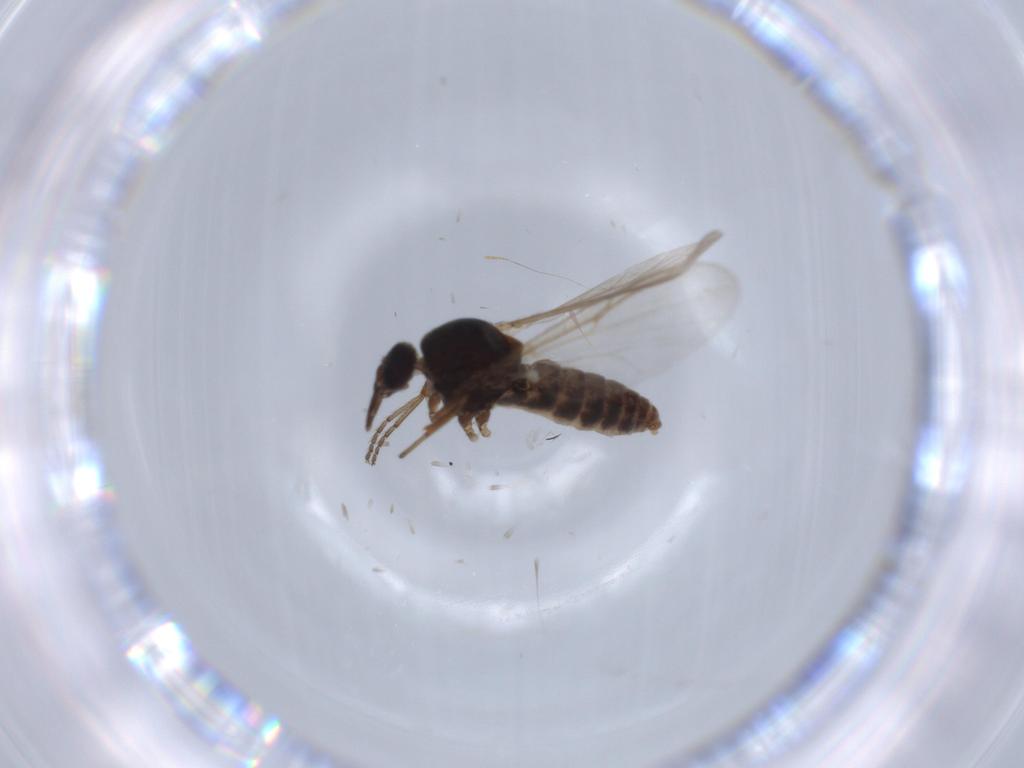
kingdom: Animalia
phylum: Arthropoda
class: Insecta
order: Diptera
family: Ceratopogonidae
